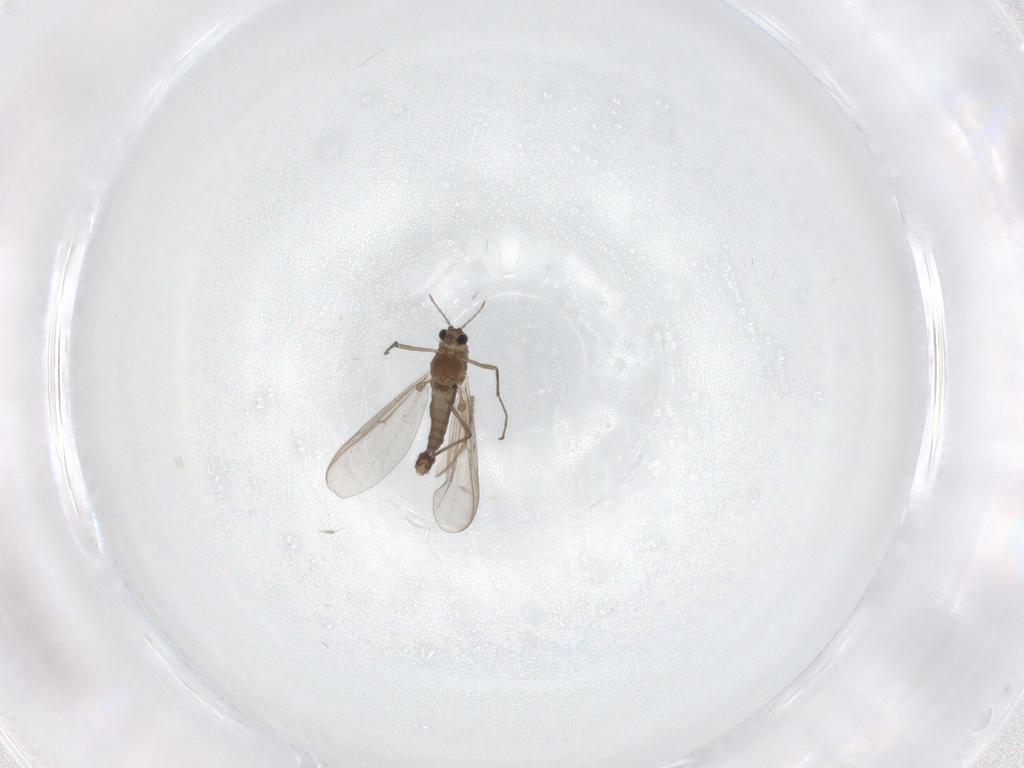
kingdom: Animalia
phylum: Arthropoda
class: Insecta
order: Diptera
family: Chironomidae
